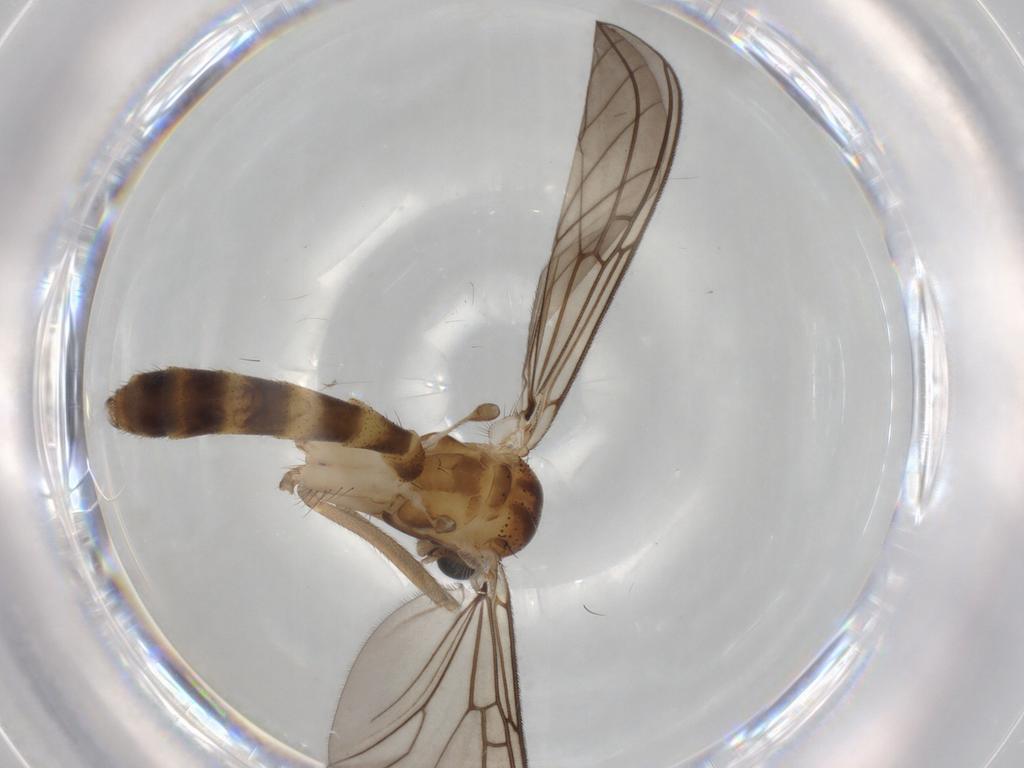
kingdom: Animalia
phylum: Arthropoda
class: Insecta
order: Diptera
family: Mycetophilidae
